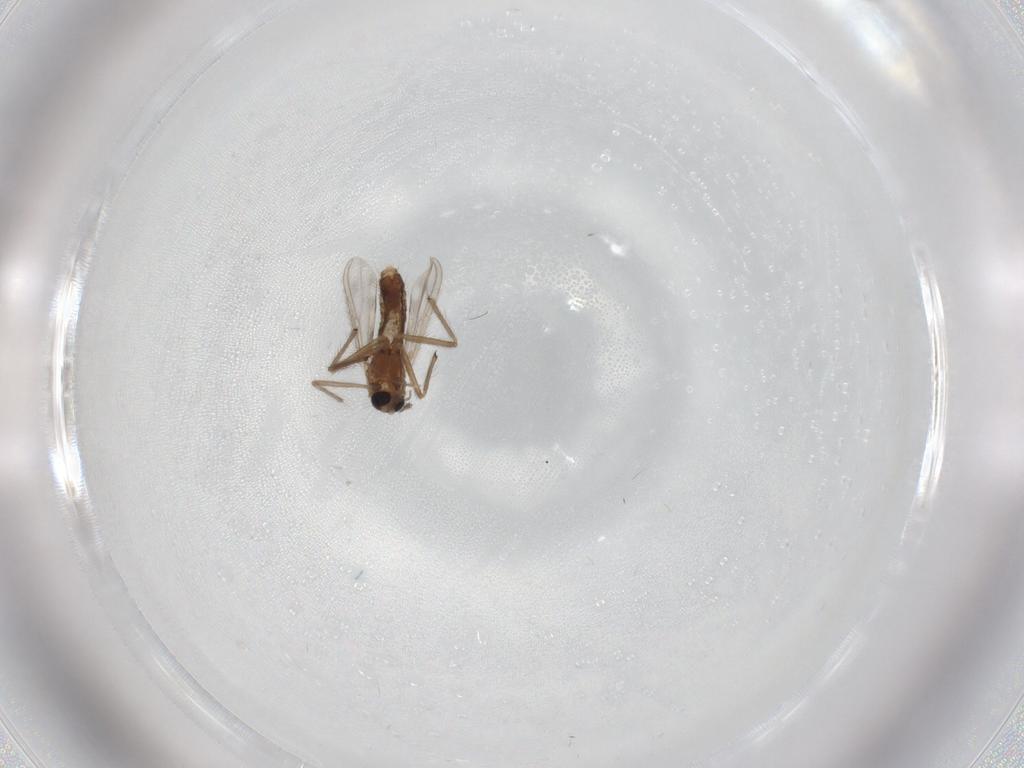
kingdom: Animalia
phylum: Arthropoda
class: Insecta
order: Diptera
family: Chironomidae
